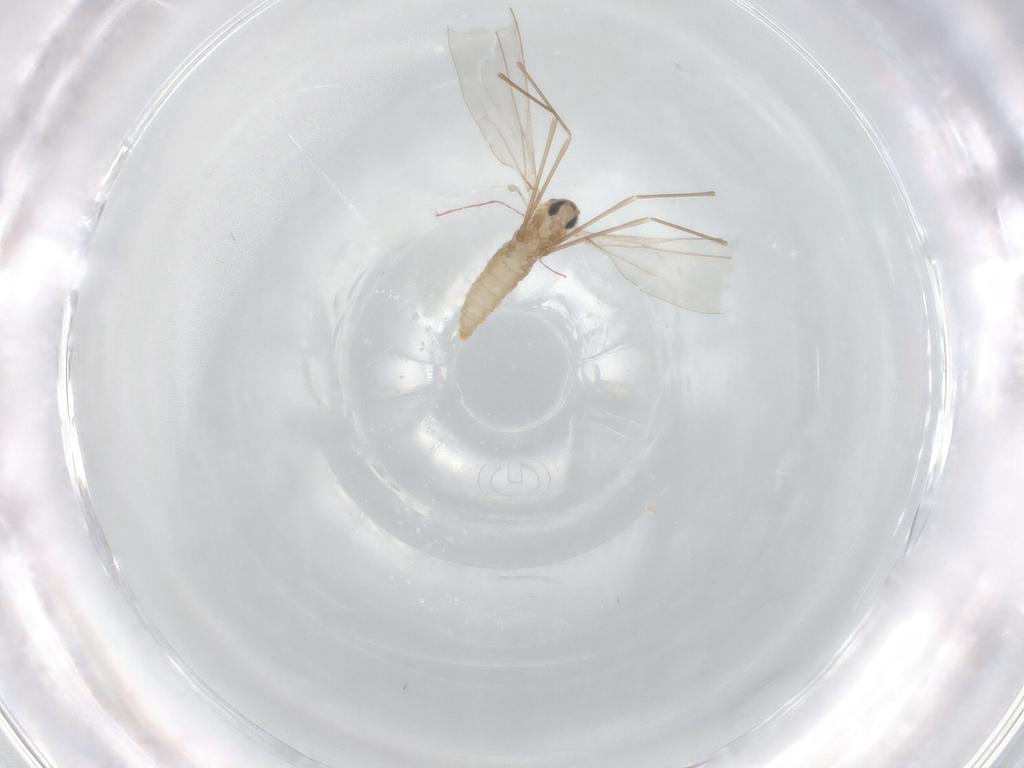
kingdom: Animalia
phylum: Arthropoda
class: Insecta
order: Diptera
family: Cecidomyiidae
